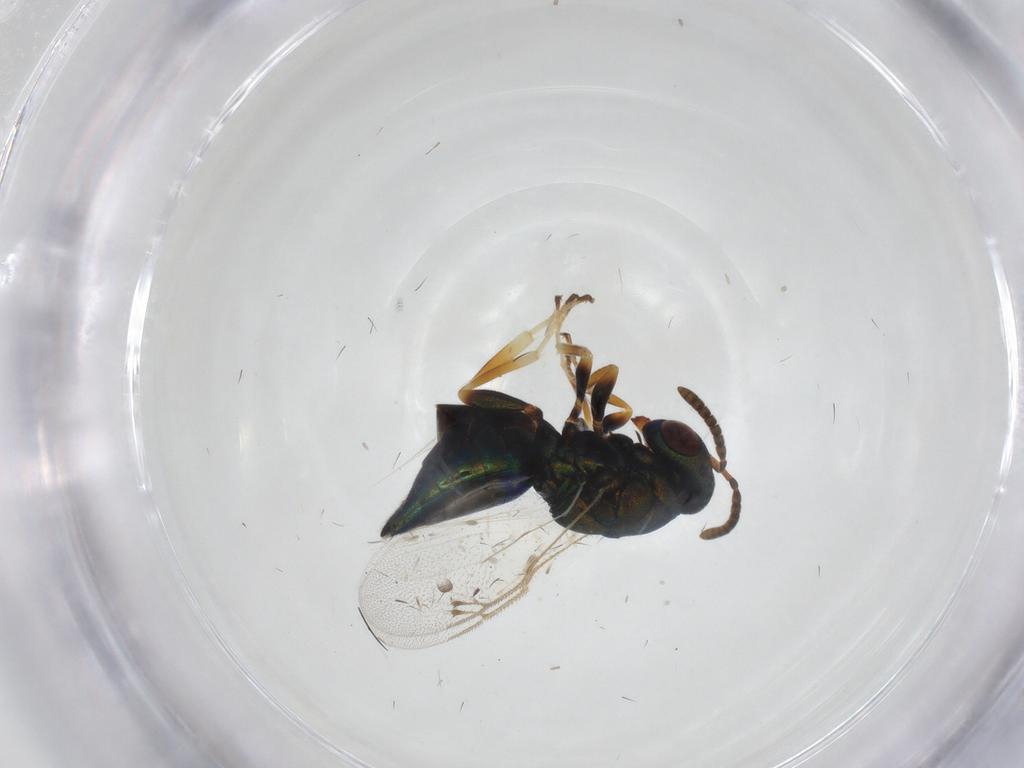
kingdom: Animalia
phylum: Arthropoda
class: Insecta
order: Hymenoptera
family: Pteromalidae
